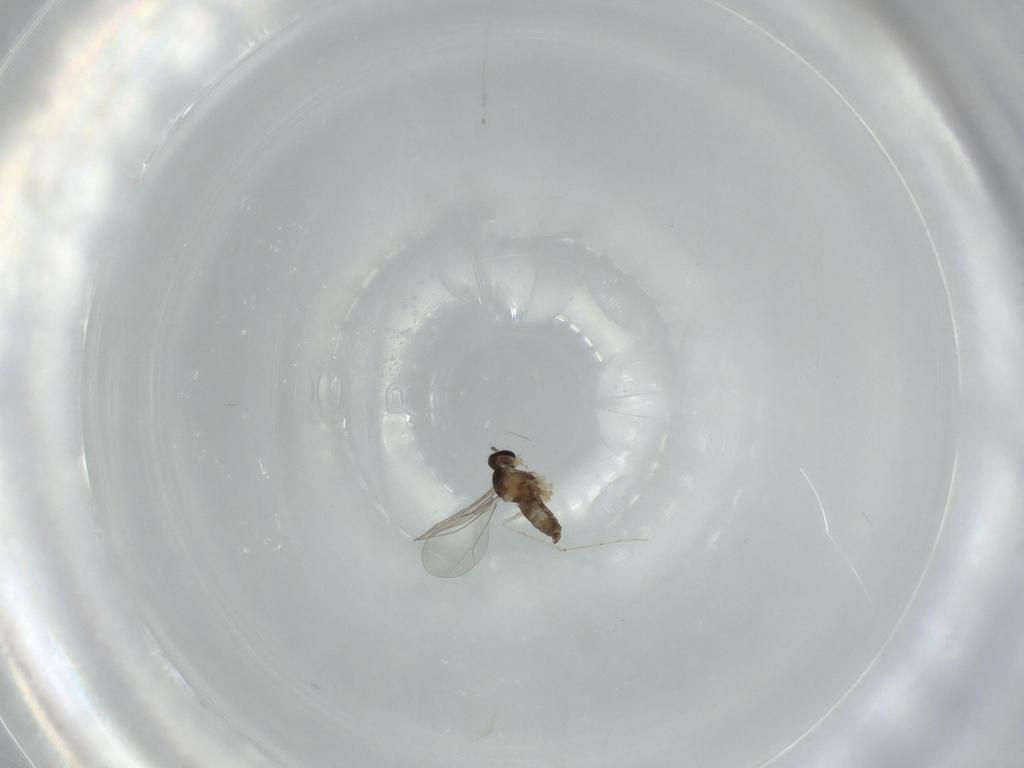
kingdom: Animalia
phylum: Arthropoda
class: Insecta
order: Diptera
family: Cecidomyiidae
